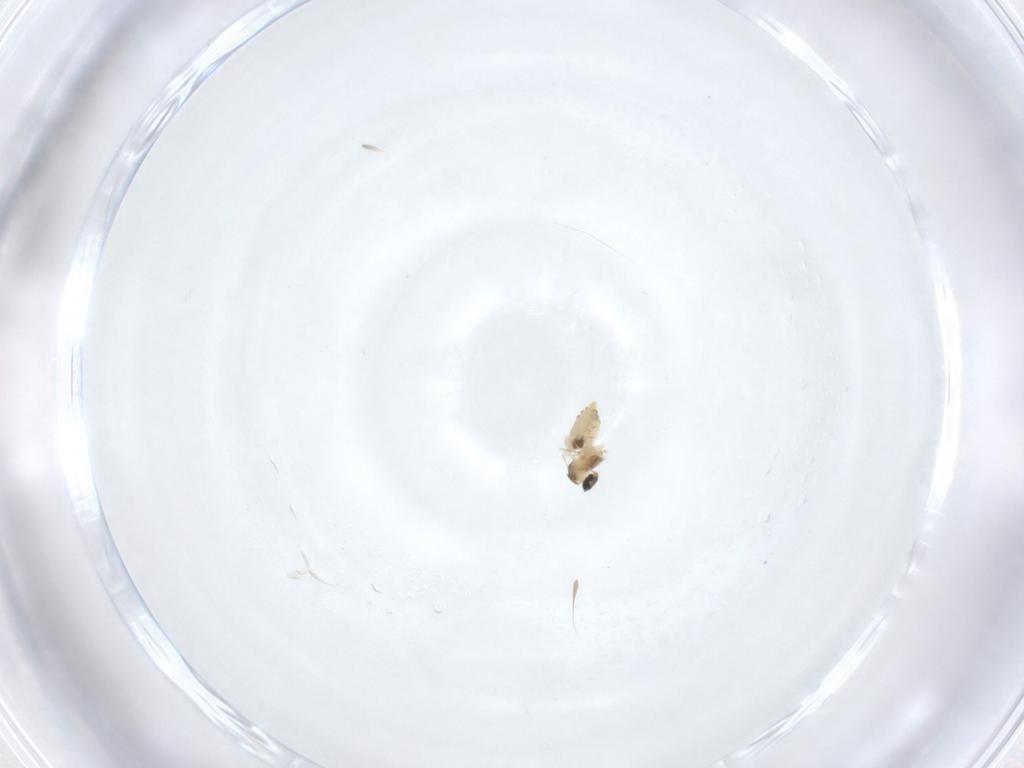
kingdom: Animalia
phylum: Arthropoda
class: Insecta
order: Diptera
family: Cecidomyiidae
